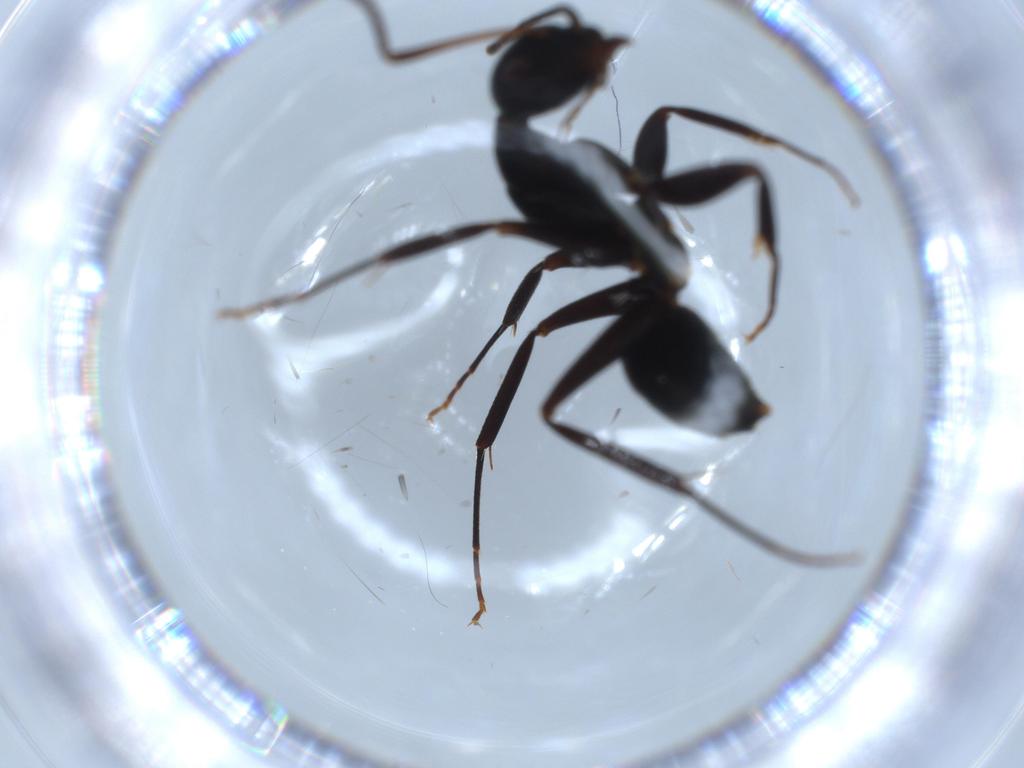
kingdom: Animalia
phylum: Arthropoda
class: Insecta
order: Hymenoptera
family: Formicidae
